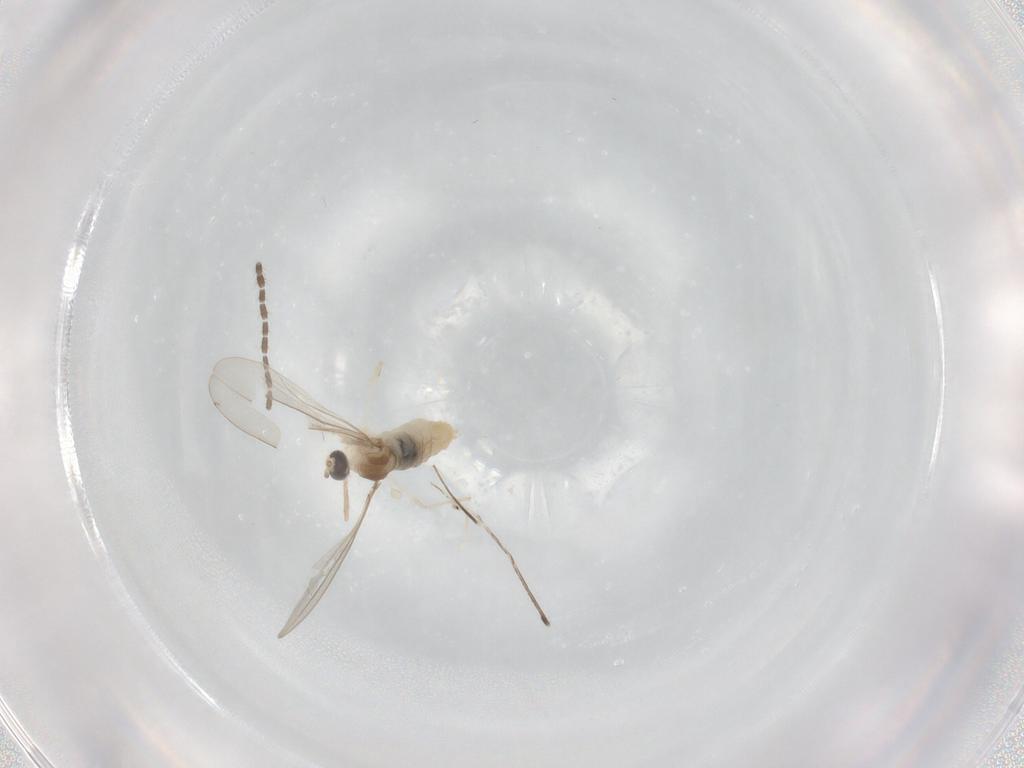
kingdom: Animalia
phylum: Arthropoda
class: Insecta
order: Diptera
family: Cecidomyiidae
